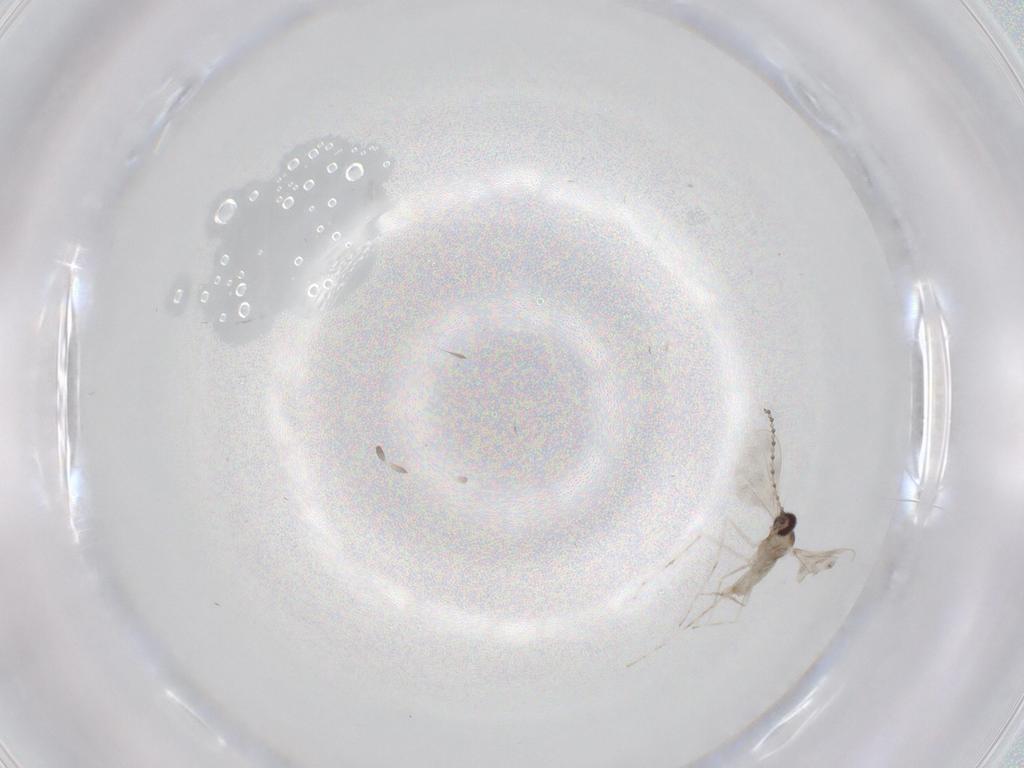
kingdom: Animalia
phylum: Arthropoda
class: Insecta
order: Diptera
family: Cecidomyiidae
